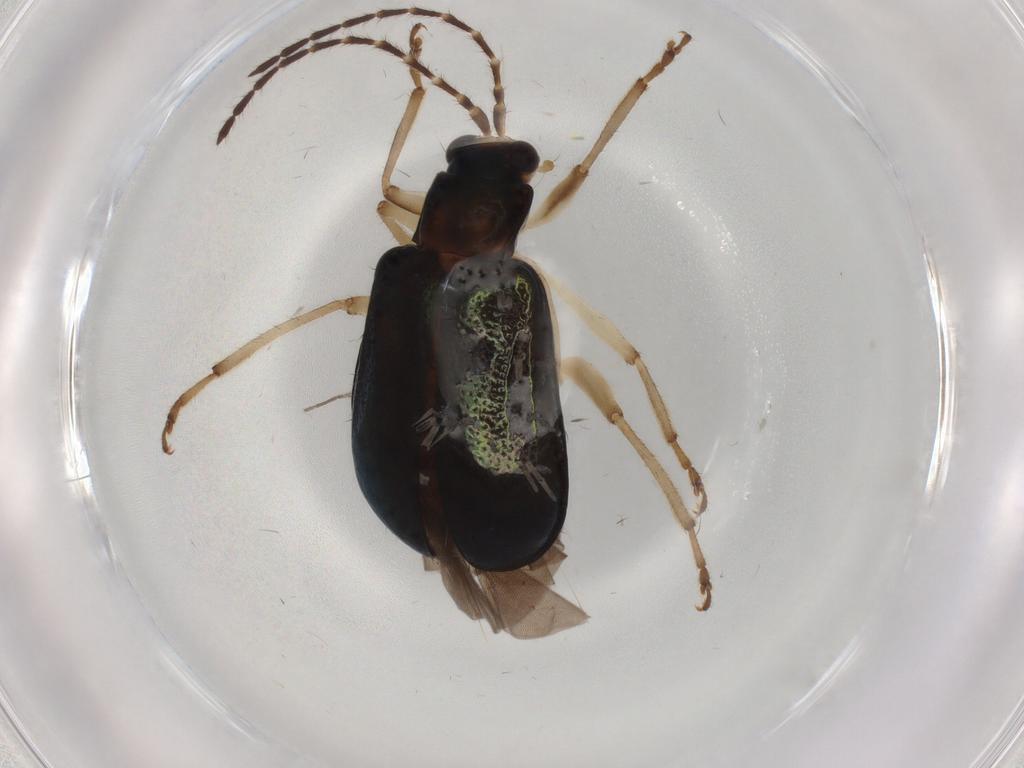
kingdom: Animalia
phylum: Arthropoda
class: Insecta
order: Coleoptera
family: Chrysomelidae
